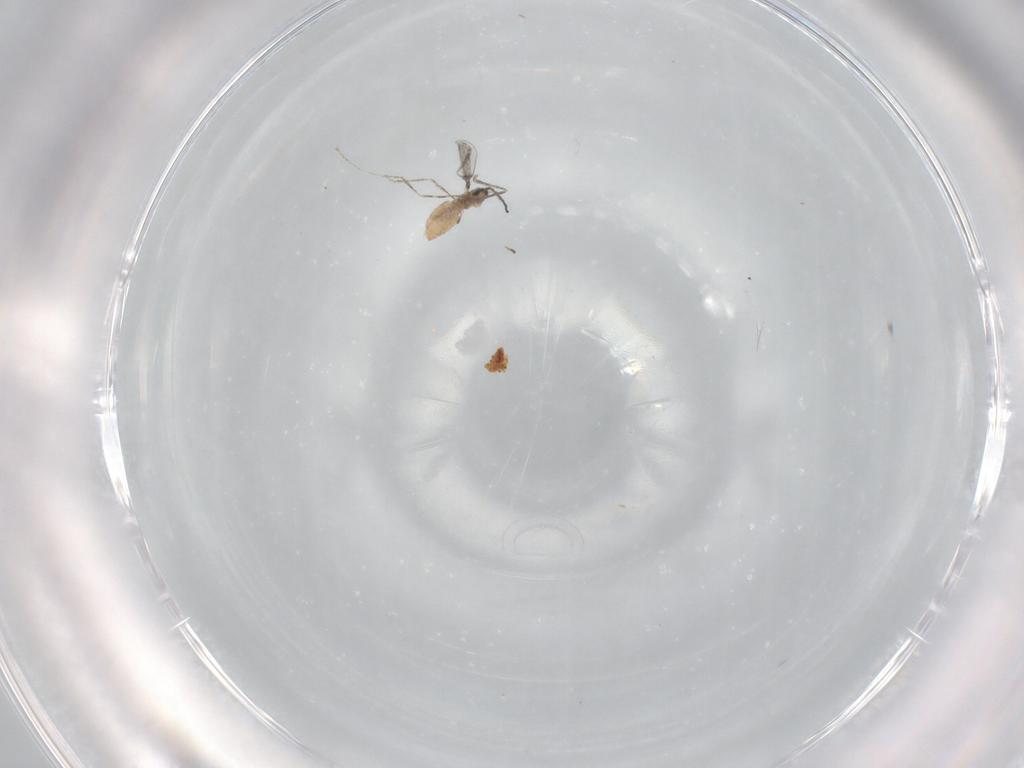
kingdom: Animalia
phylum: Arthropoda
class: Insecta
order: Diptera
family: Cecidomyiidae
